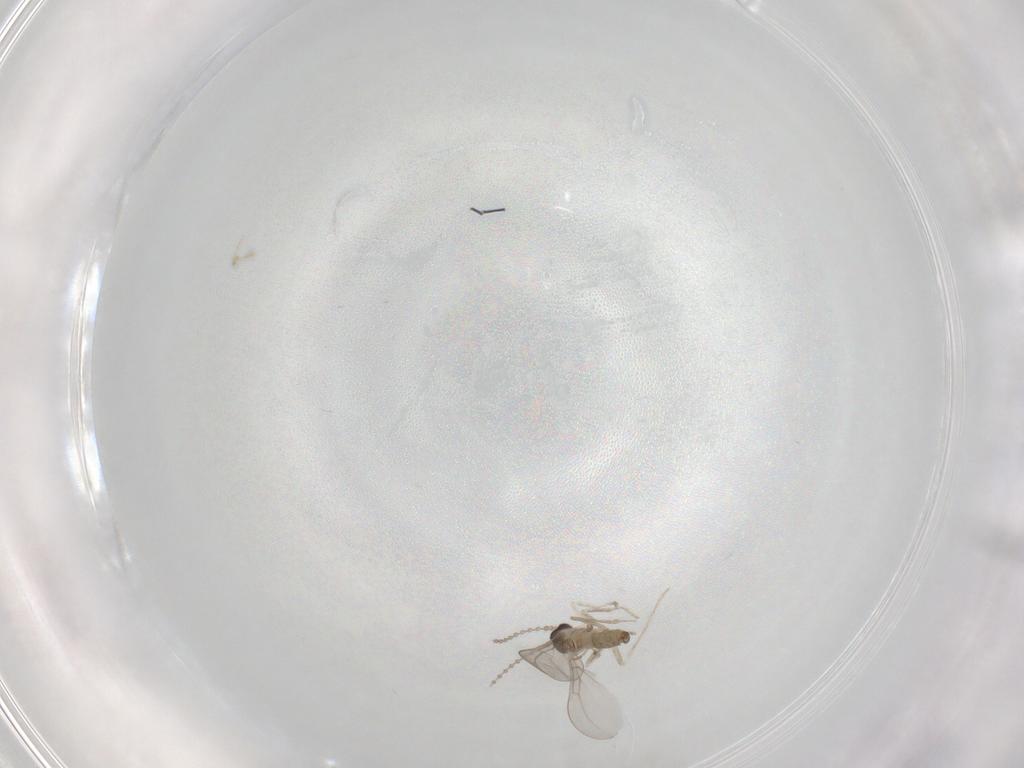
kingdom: Animalia
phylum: Arthropoda
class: Insecta
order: Diptera
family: Cecidomyiidae
